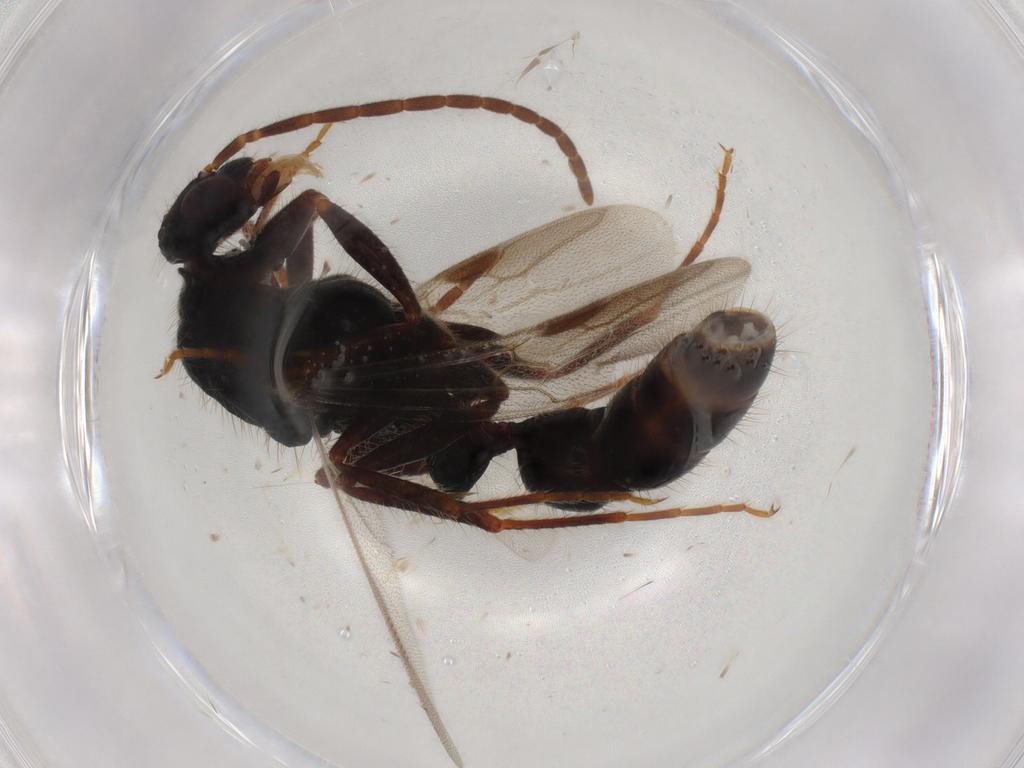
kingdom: Animalia
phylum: Arthropoda
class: Insecta
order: Hymenoptera
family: Formicidae
